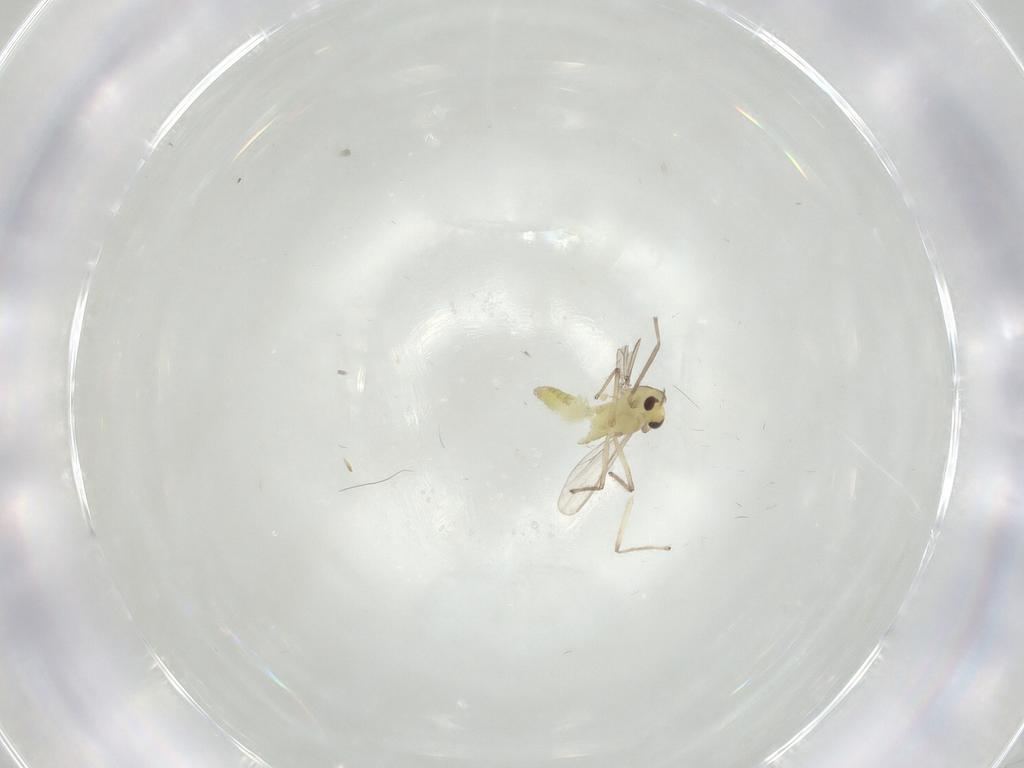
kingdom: Animalia
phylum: Arthropoda
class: Insecta
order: Diptera
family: Chironomidae
